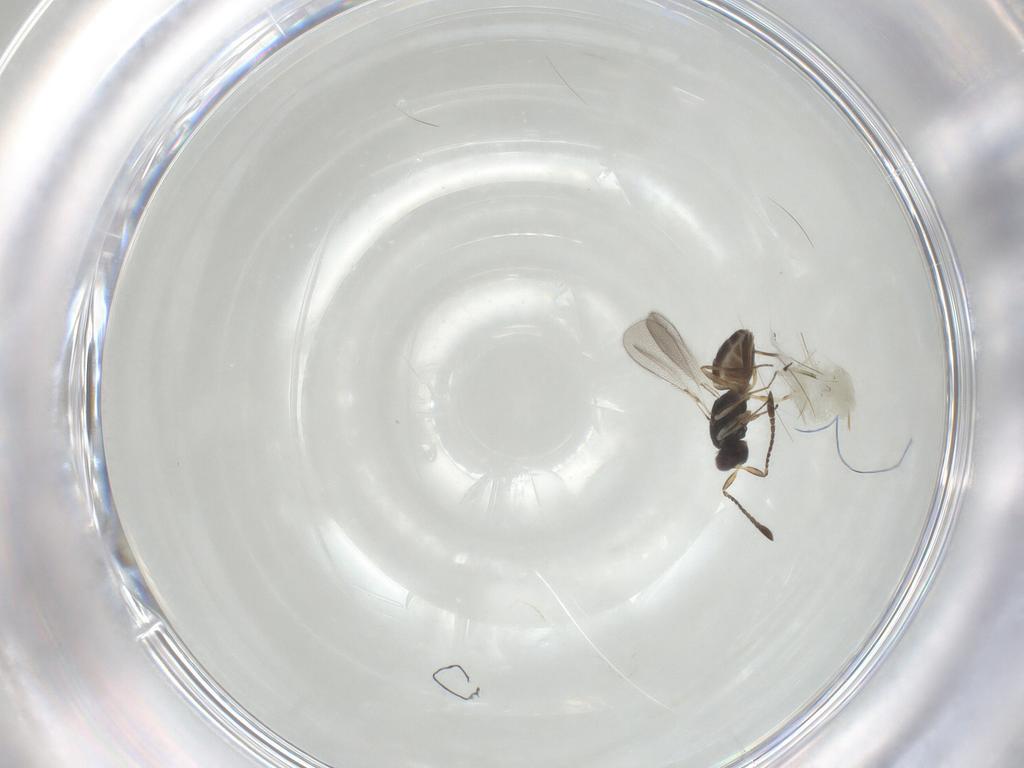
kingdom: Animalia
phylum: Arthropoda
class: Insecta
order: Hymenoptera
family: Mymaridae
